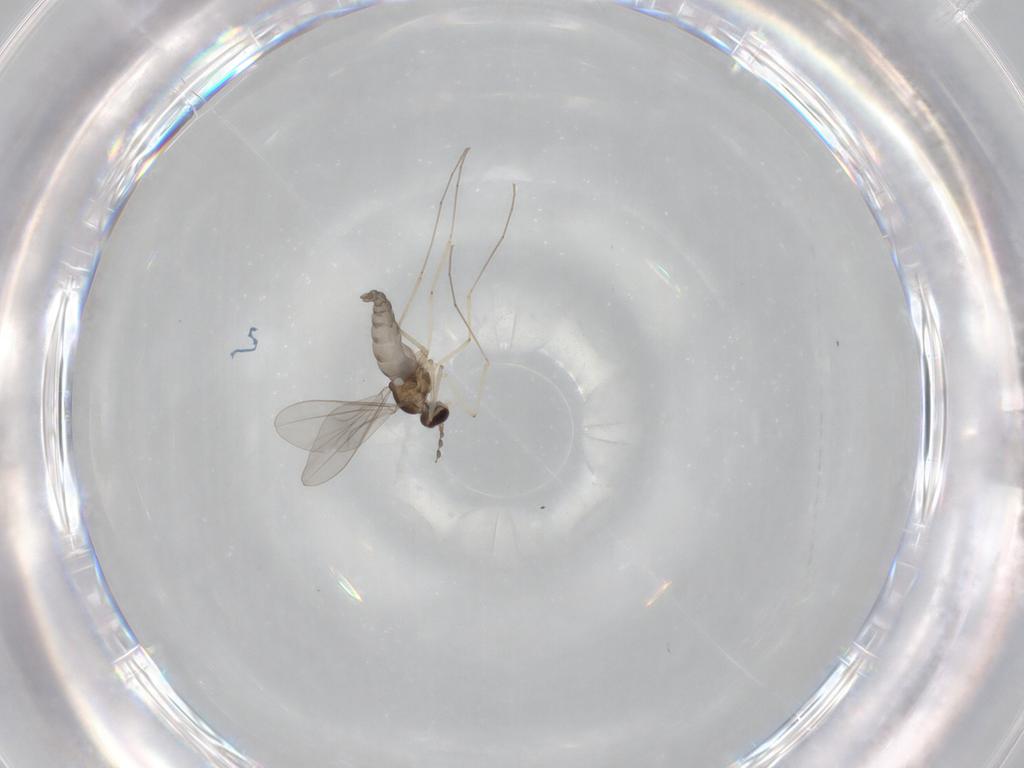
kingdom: Animalia
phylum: Arthropoda
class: Insecta
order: Diptera
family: Cecidomyiidae
